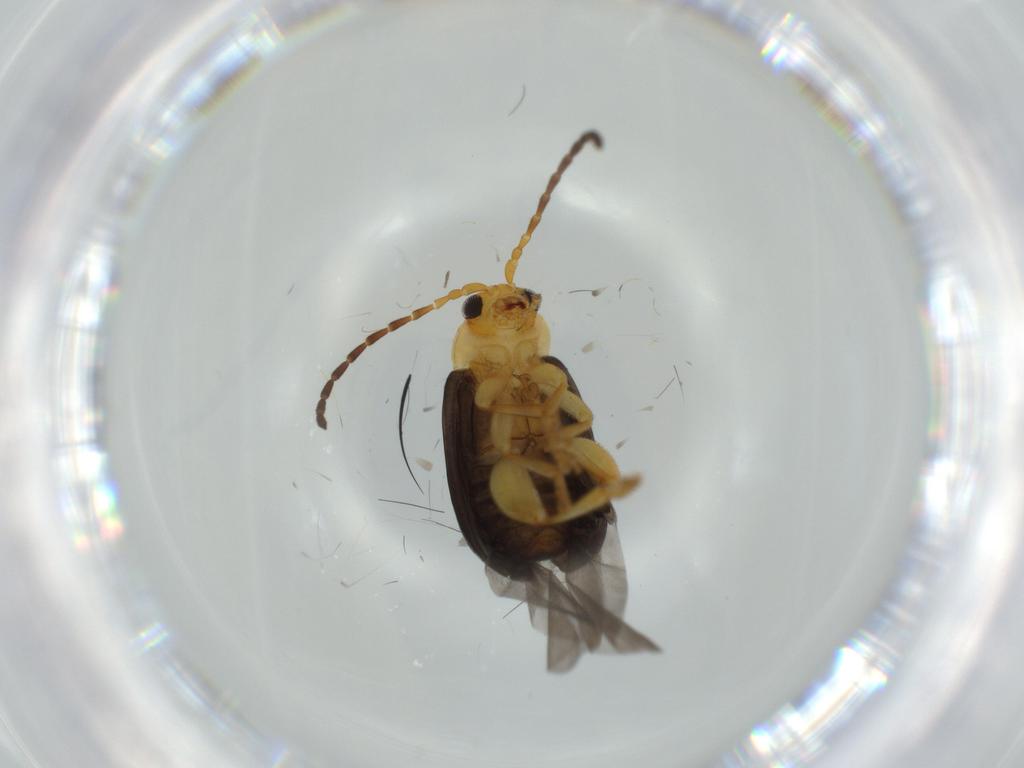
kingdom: Animalia
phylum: Arthropoda
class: Insecta
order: Coleoptera
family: Chrysomelidae
